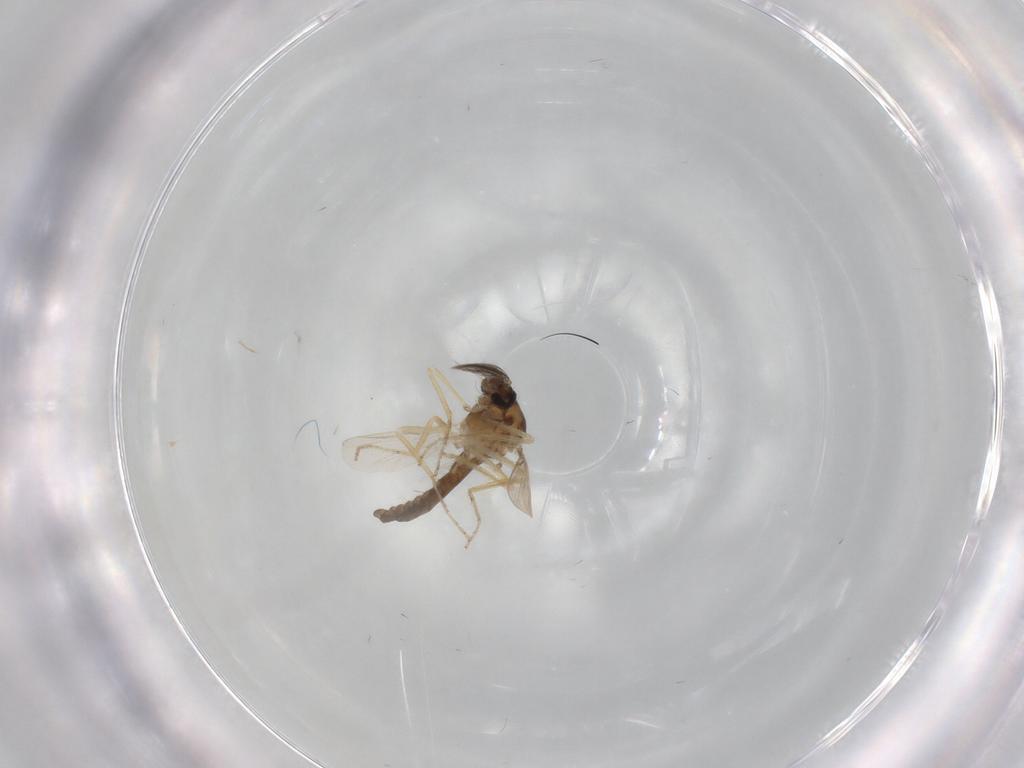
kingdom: Animalia
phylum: Arthropoda
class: Insecta
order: Diptera
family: Ceratopogonidae
